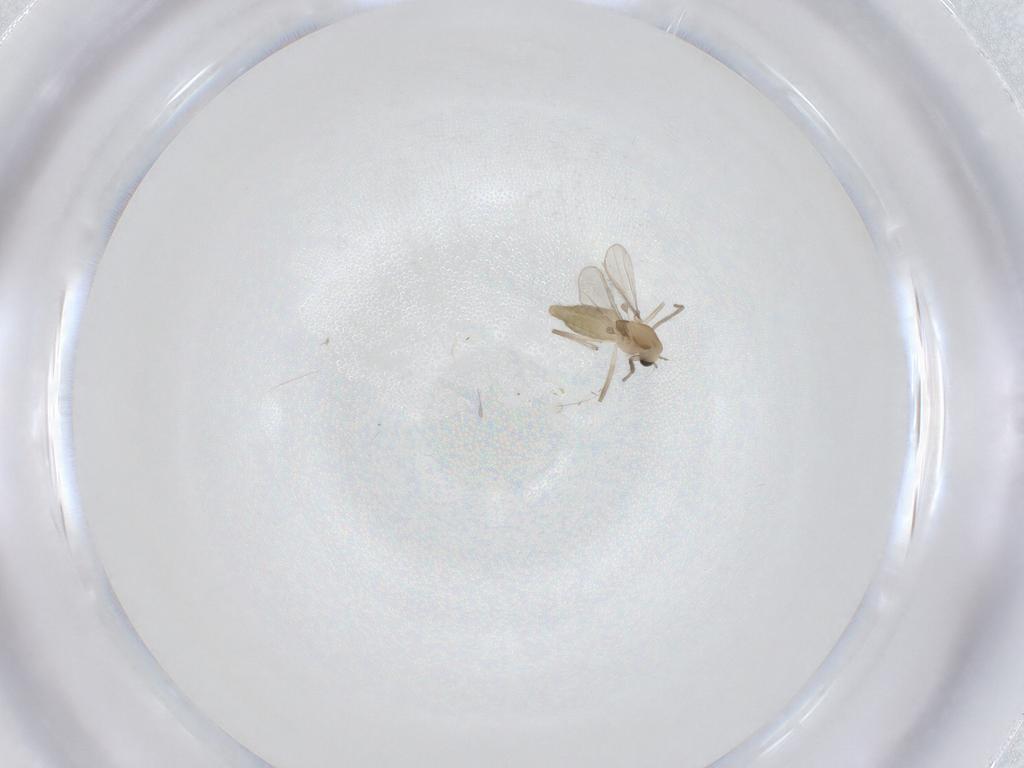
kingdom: Animalia
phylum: Arthropoda
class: Insecta
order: Diptera
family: Chironomidae
